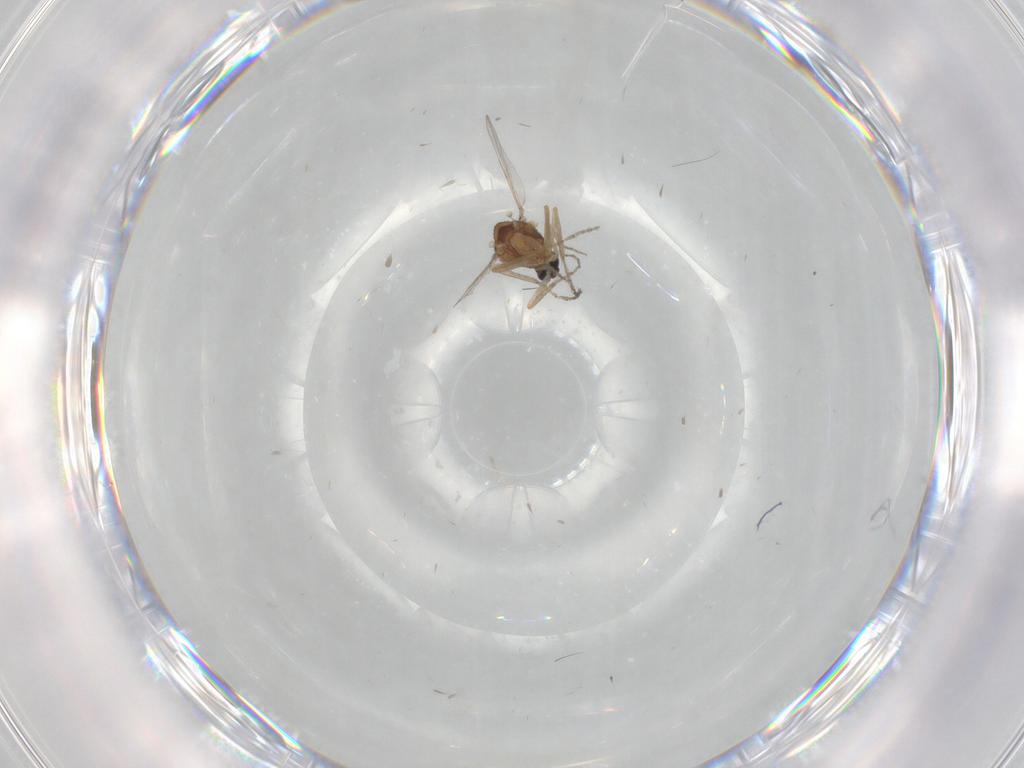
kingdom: Animalia
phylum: Arthropoda
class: Insecta
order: Diptera
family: Ceratopogonidae
